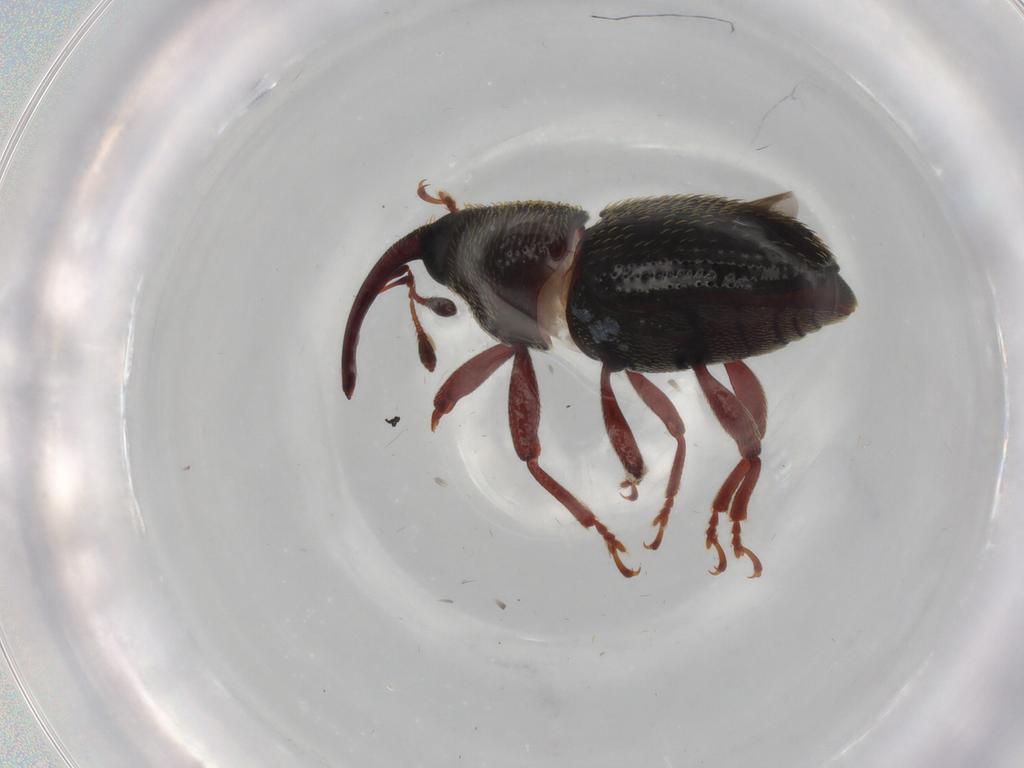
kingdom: Animalia
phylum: Arthropoda
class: Insecta
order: Coleoptera
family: Curculionidae
